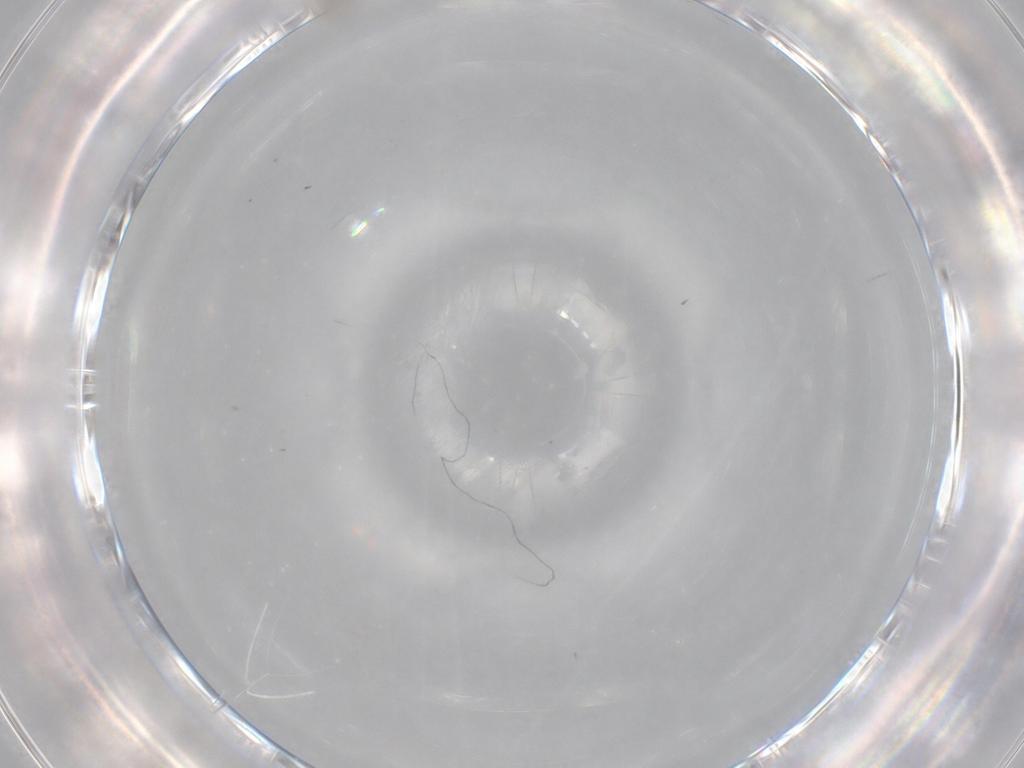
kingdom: Animalia
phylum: Arthropoda
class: Insecta
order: Diptera
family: Cecidomyiidae
